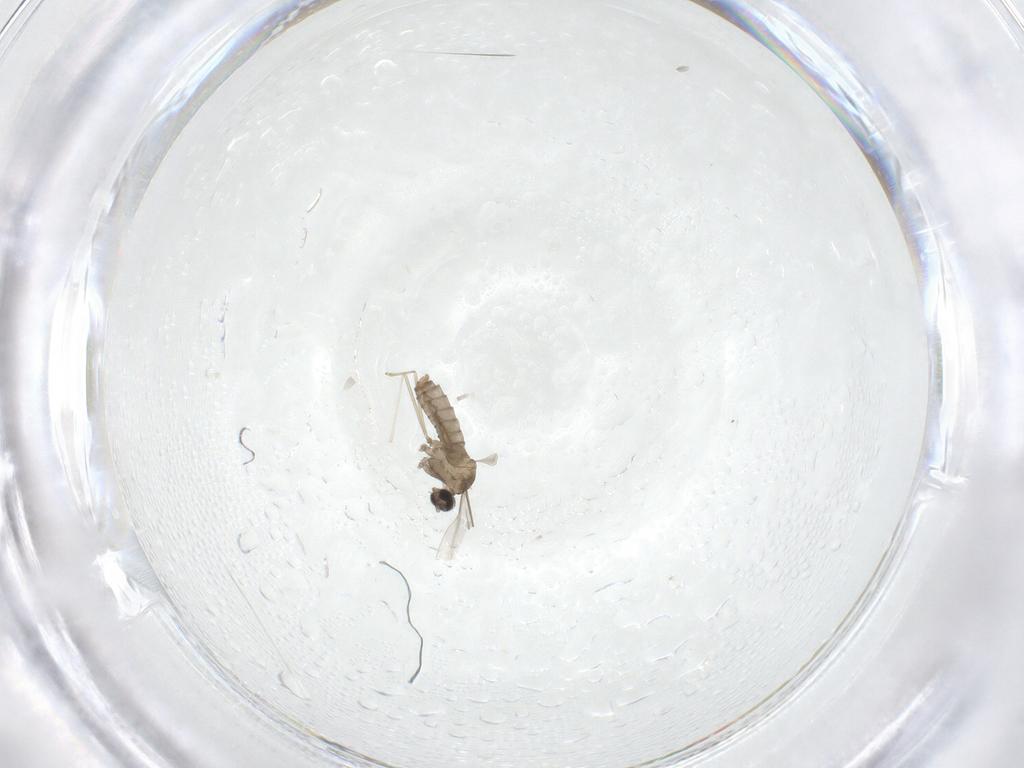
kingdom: Animalia
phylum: Arthropoda
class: Insecta
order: Diptera
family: Cecidomyiidae
